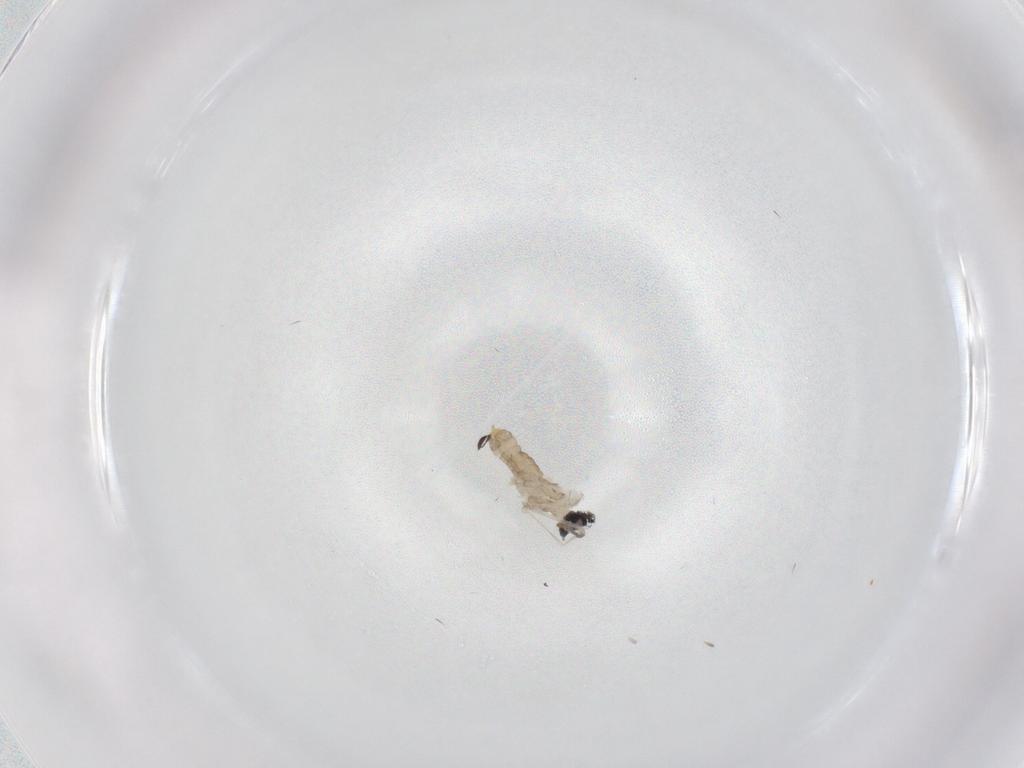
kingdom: Animalia
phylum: Arthropoda
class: Insecta
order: Diptera
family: Cecidomyiidae
